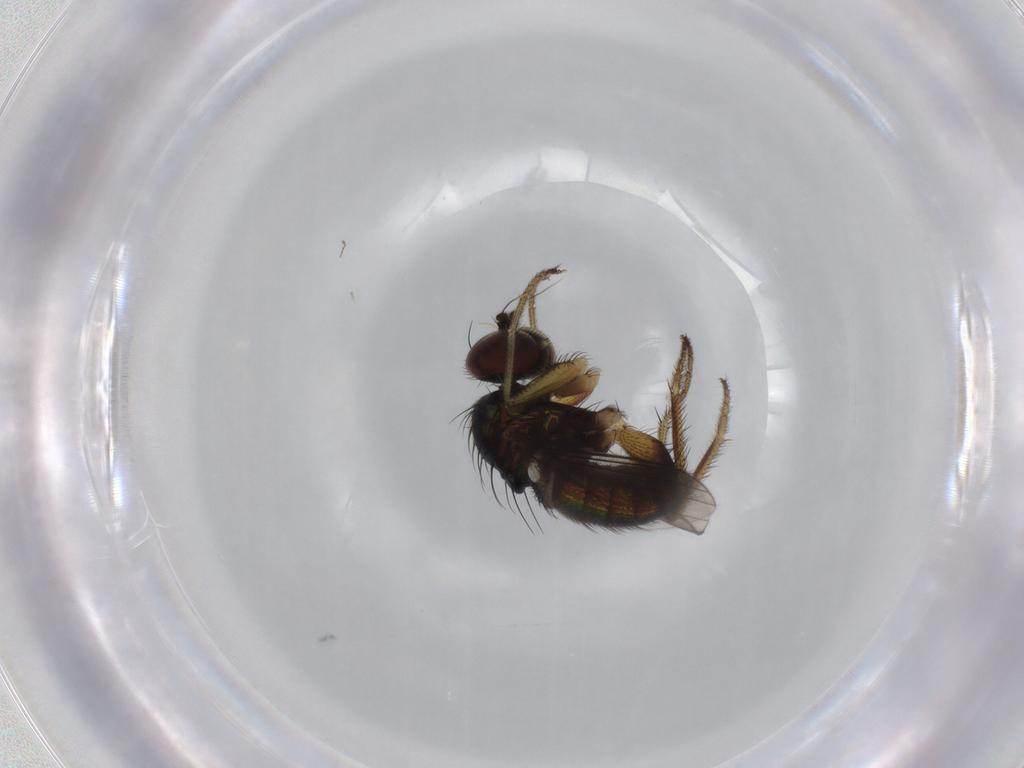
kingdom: Animalia
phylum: Arthropoda
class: Insecta
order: Diptera
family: Dolichopodidae
